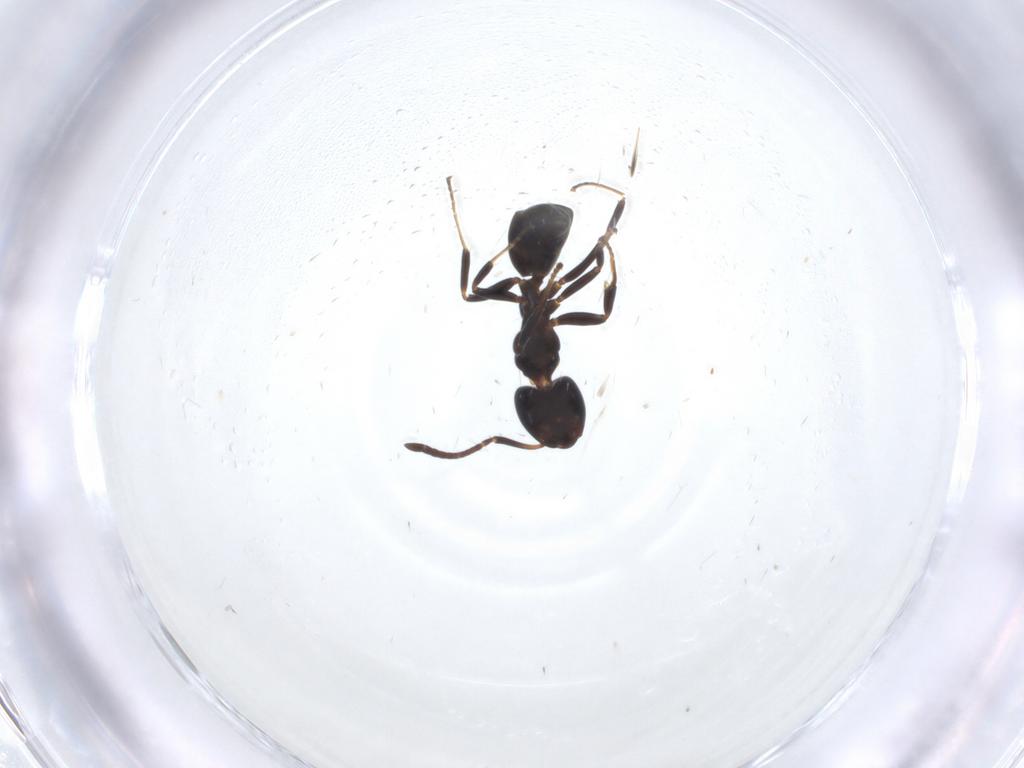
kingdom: Animalia
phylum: Arthropoda
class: Insecta
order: Hymenoptera
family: Formicidae
